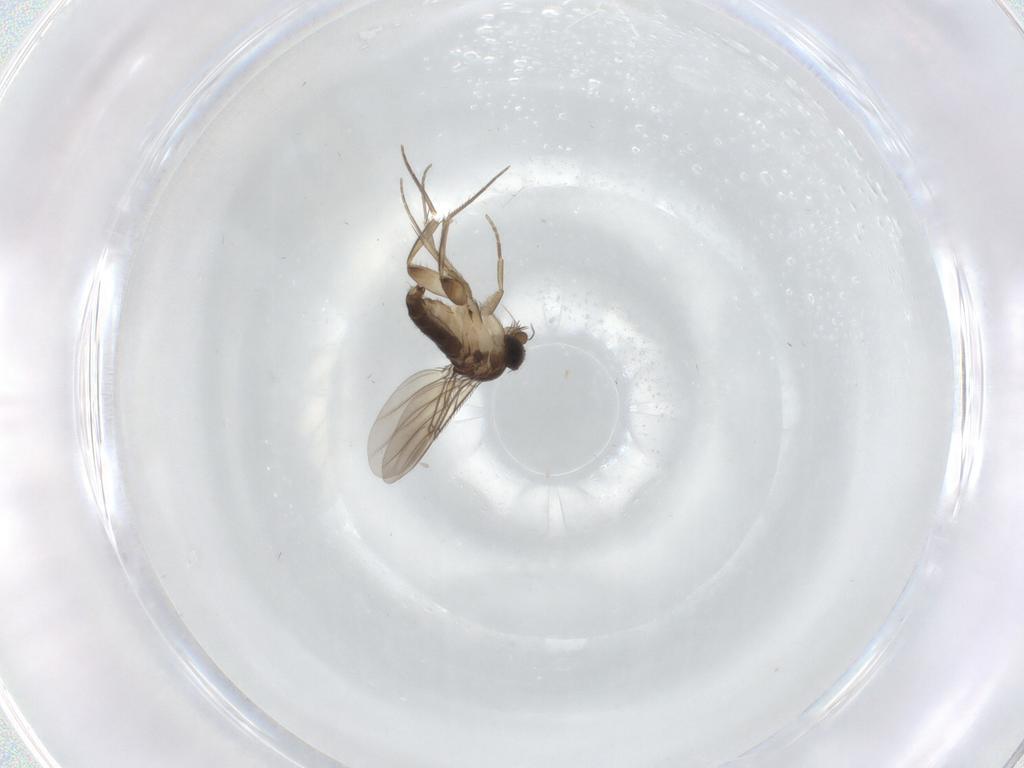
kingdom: Animalia
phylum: Arthropoda
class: Insecta
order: Diptera
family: Phoridae
